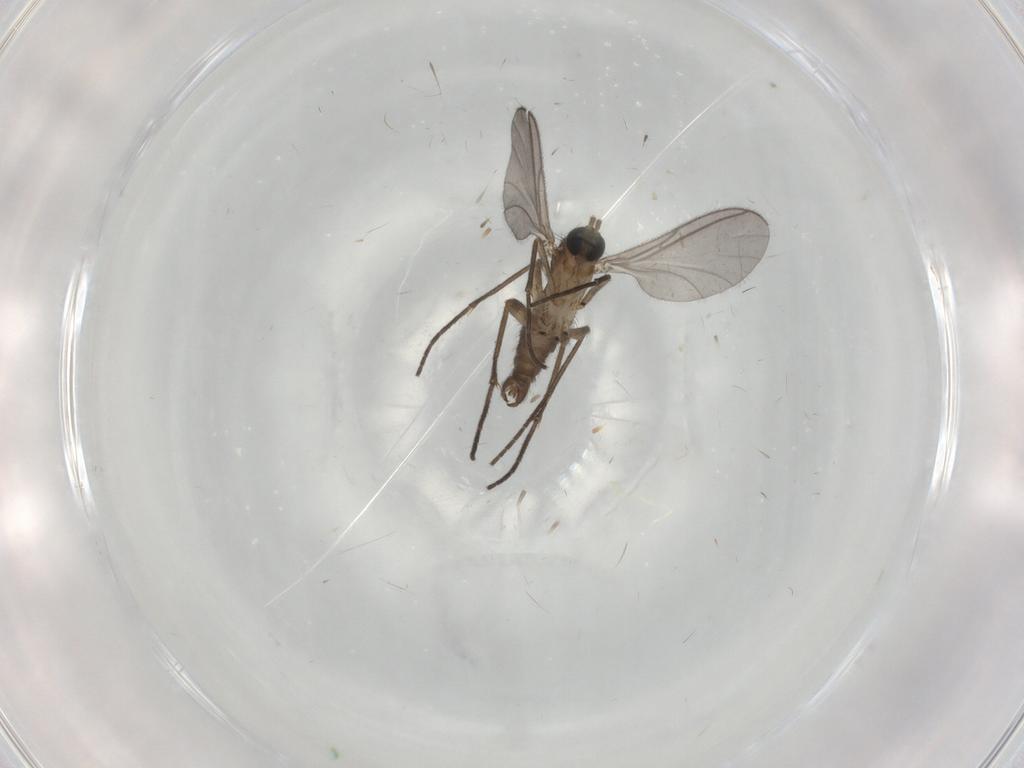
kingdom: Animalia
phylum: Arthropoda
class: Insecta
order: Diptera
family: Sciaridae
